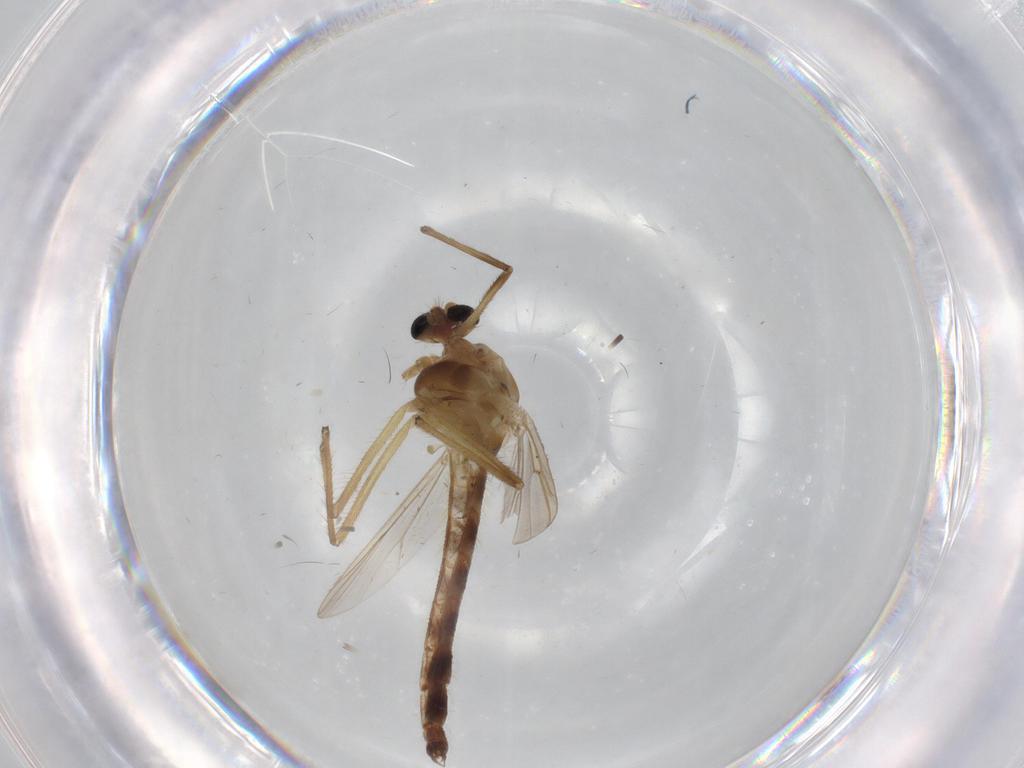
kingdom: Animalia
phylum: Arthropoda
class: Insecta
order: Diptera
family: Chironomidae
